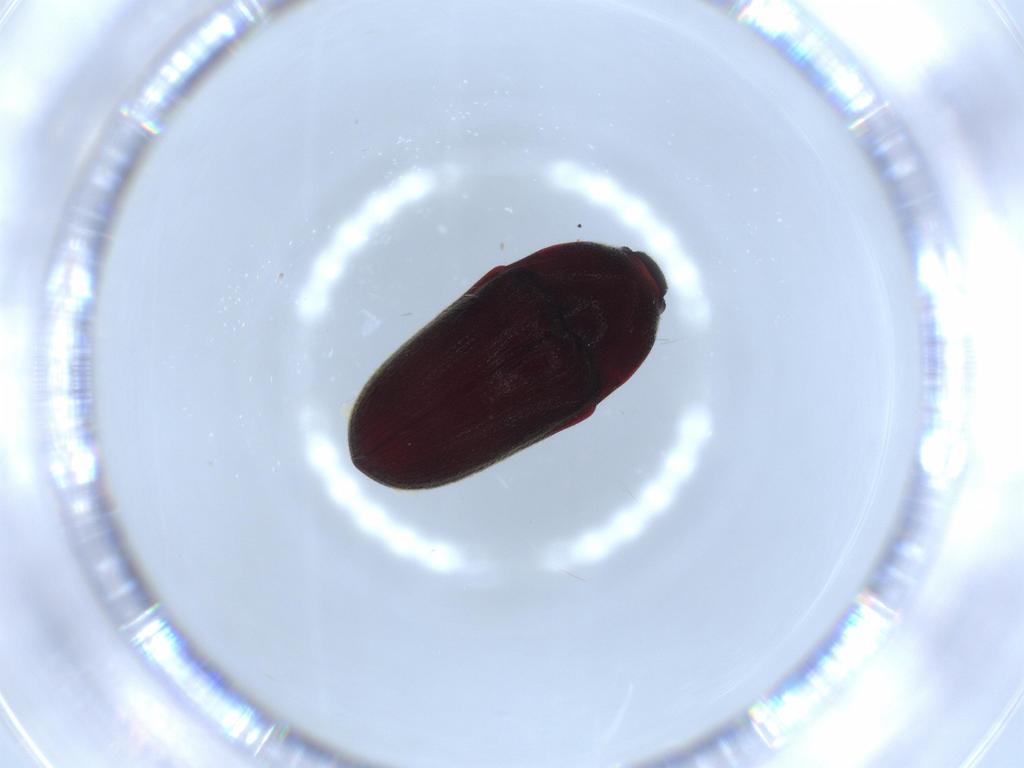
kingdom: Animalia
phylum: Arthropoda
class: Insecta
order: Coleoptera
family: Throscidae
